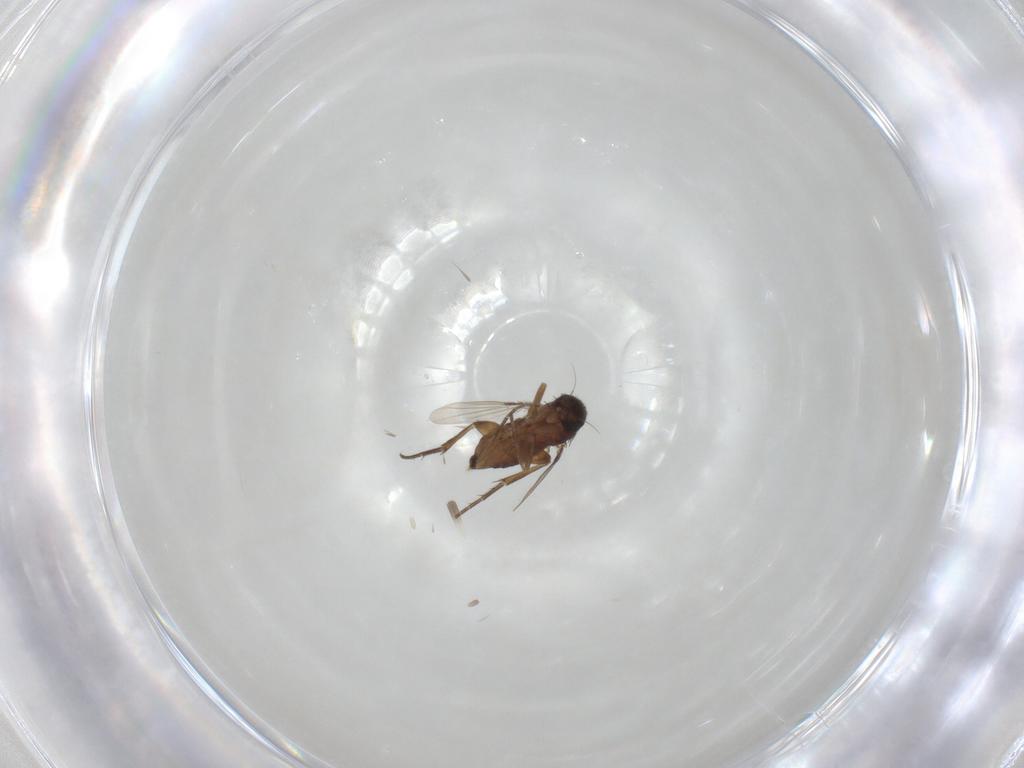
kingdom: Animalia
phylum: Arthropoda
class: Insecta
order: Diptera
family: Phoridae
